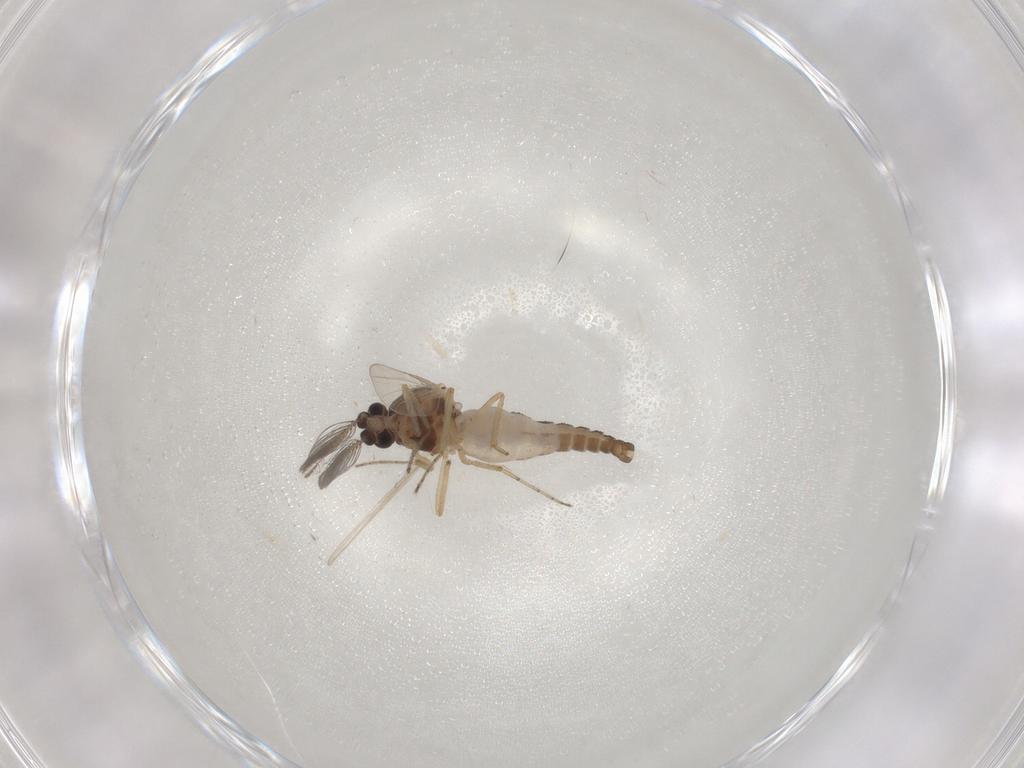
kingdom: Animalia
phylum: Arthropoda
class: Insecta
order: Diptera
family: Ceratopogonidae
